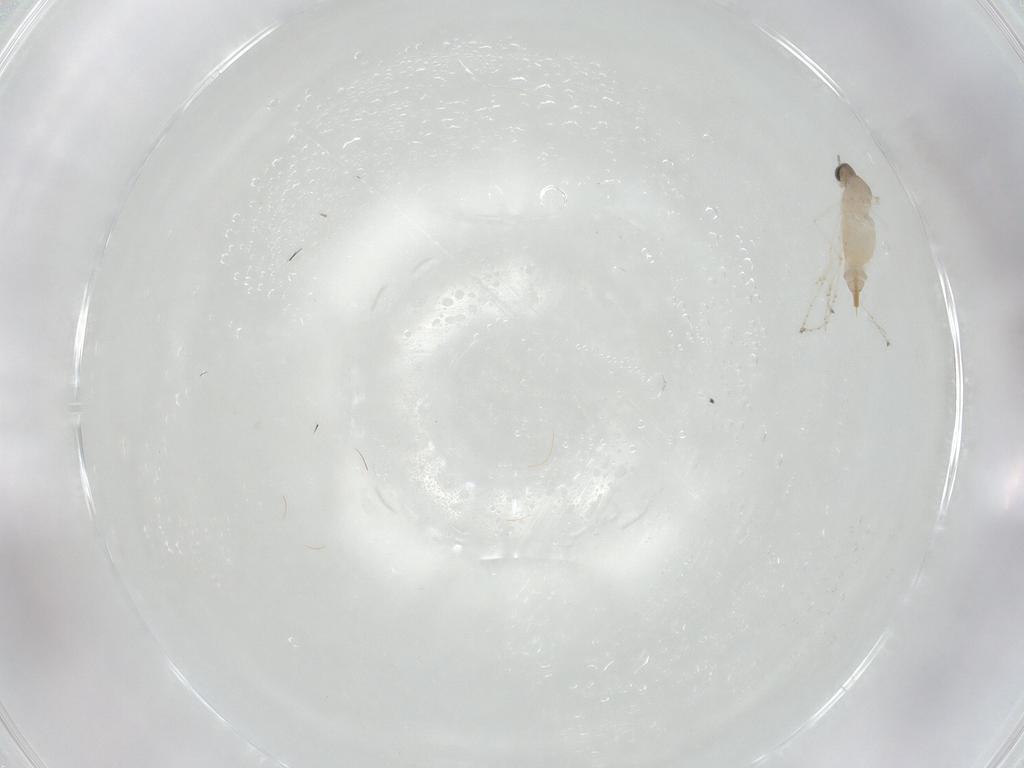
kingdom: Animalia
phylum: Arthropoda
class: Insecta
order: Diptera
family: Cecidomyiidae
